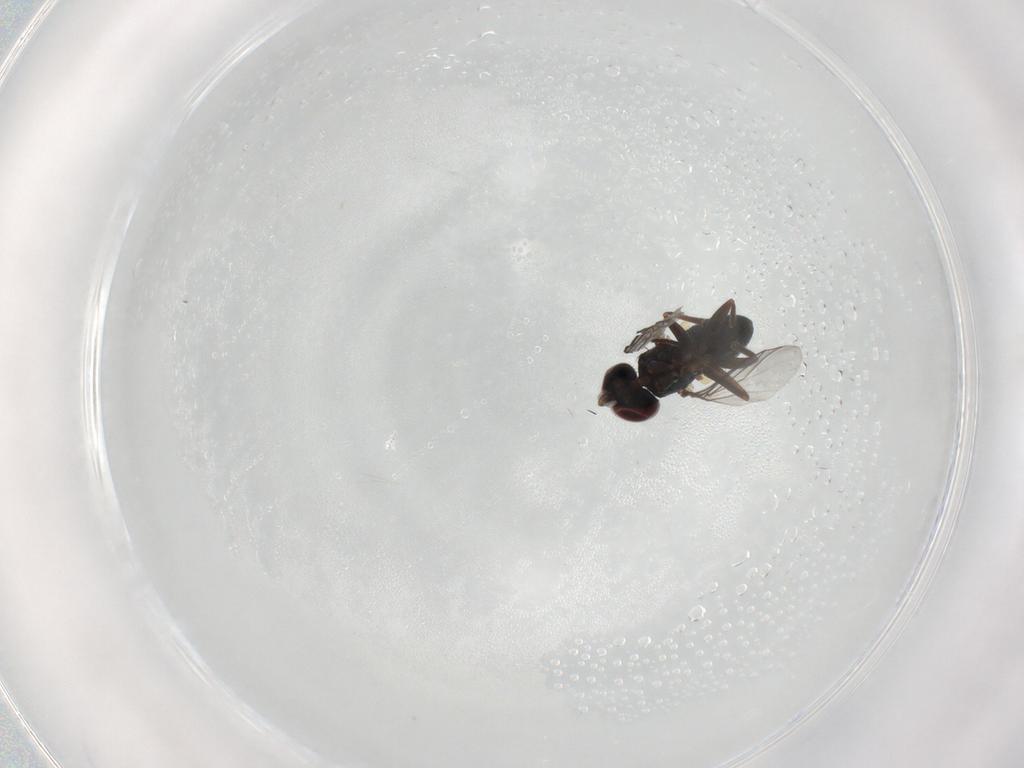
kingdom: Animalia
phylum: Arthropoda
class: Insecta
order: Diptera
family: Dolichopodidae
